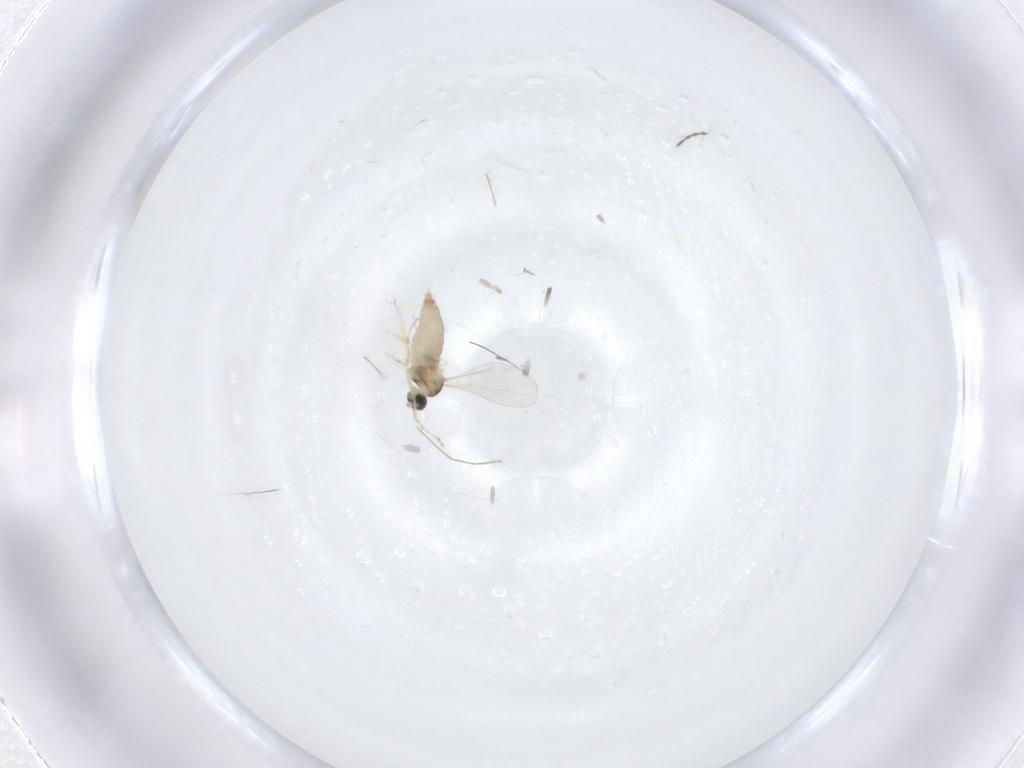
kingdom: Animalia
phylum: Arthropoda
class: Insecta
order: Diptera
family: Chironomidae
